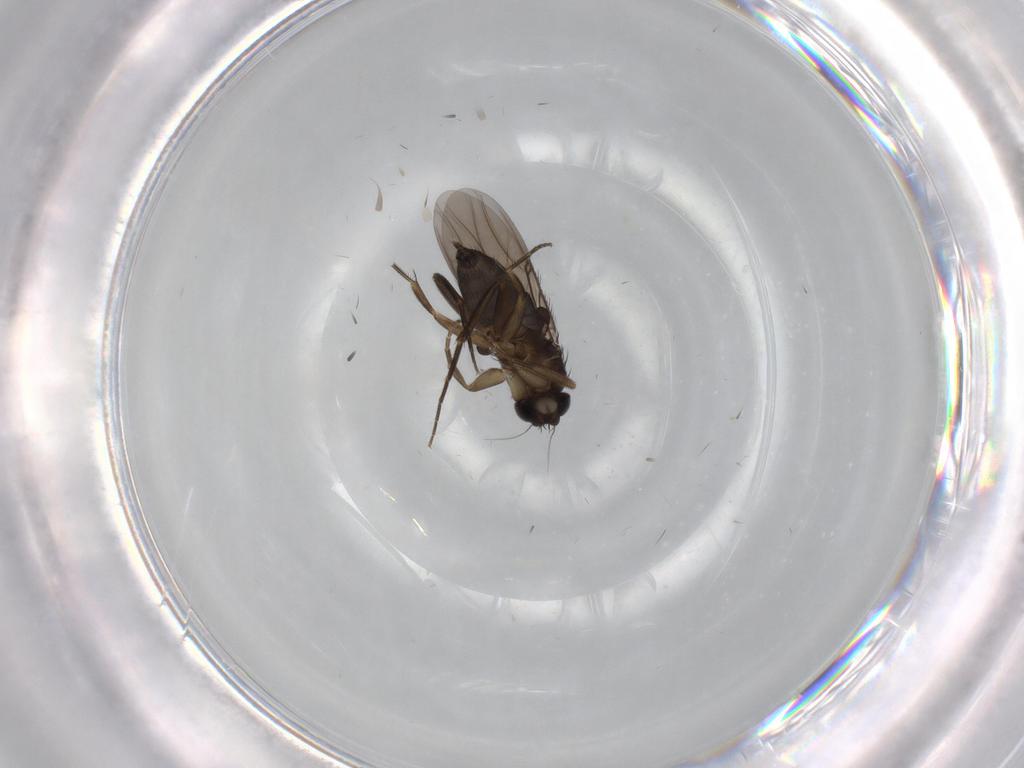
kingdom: Animalia
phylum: Arthropoda
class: Insecta
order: Diptera
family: Phoridae
